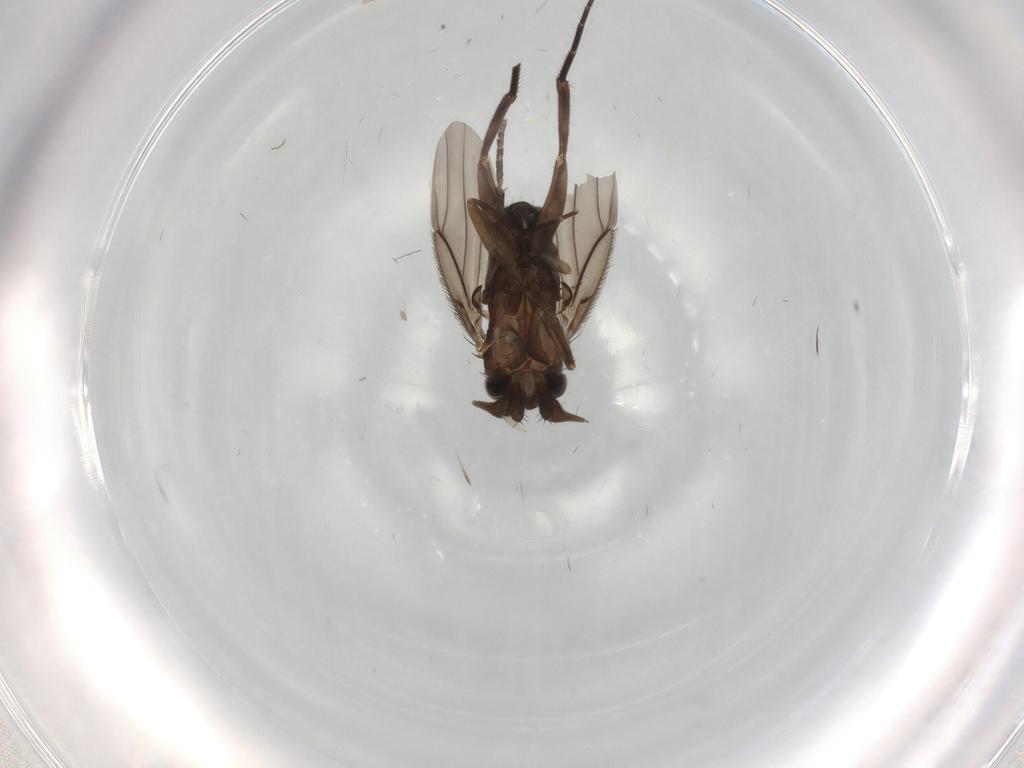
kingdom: Animalia
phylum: Arthropoda
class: Insecta
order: Diptera
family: Phoridae
